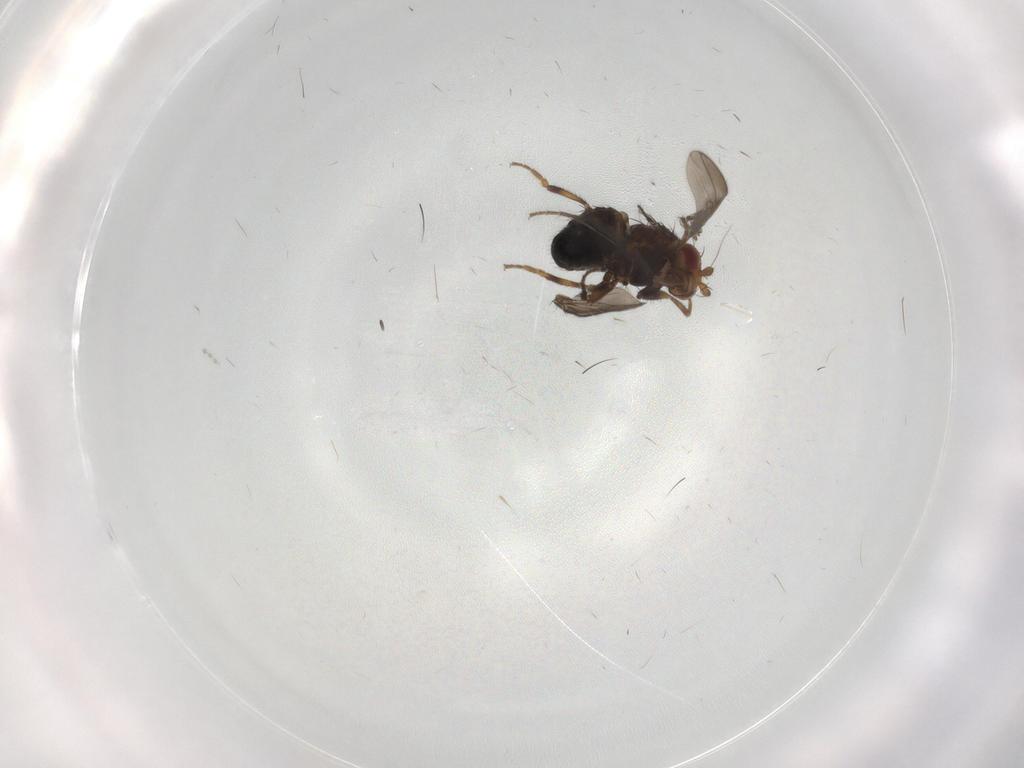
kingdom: Animalia
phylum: Arthropoda
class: Insecta
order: Diptera
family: Sphaeroceridae
